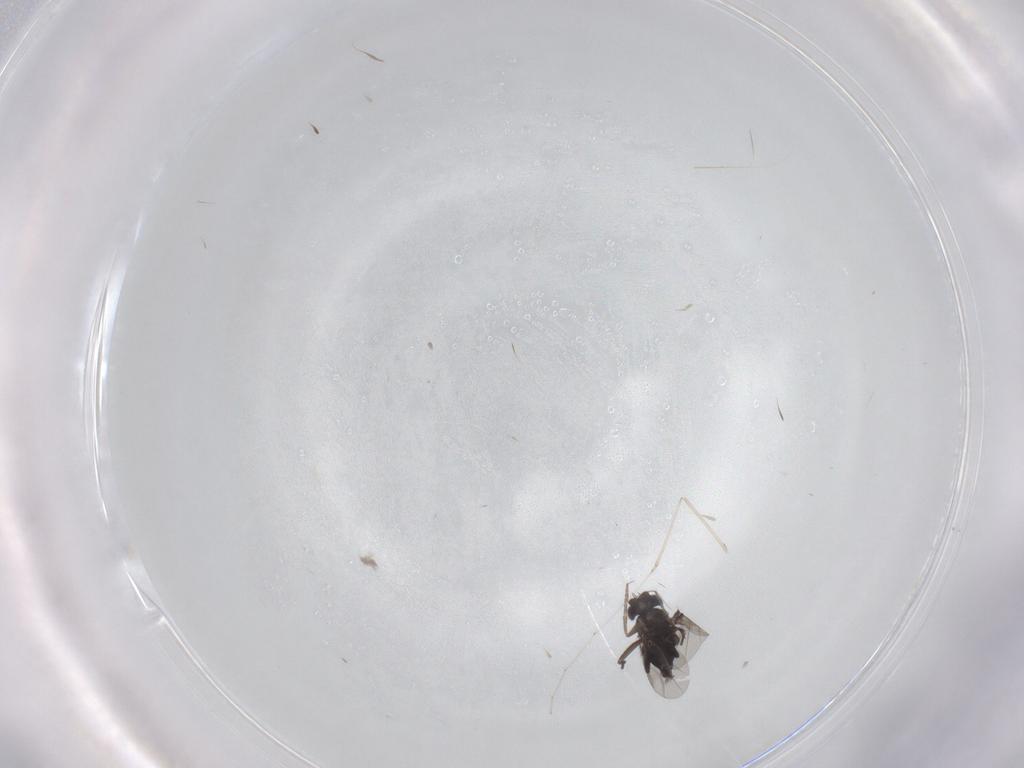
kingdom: Animalia
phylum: Arthropoda
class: Insecta
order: Diptera
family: Phoridae
